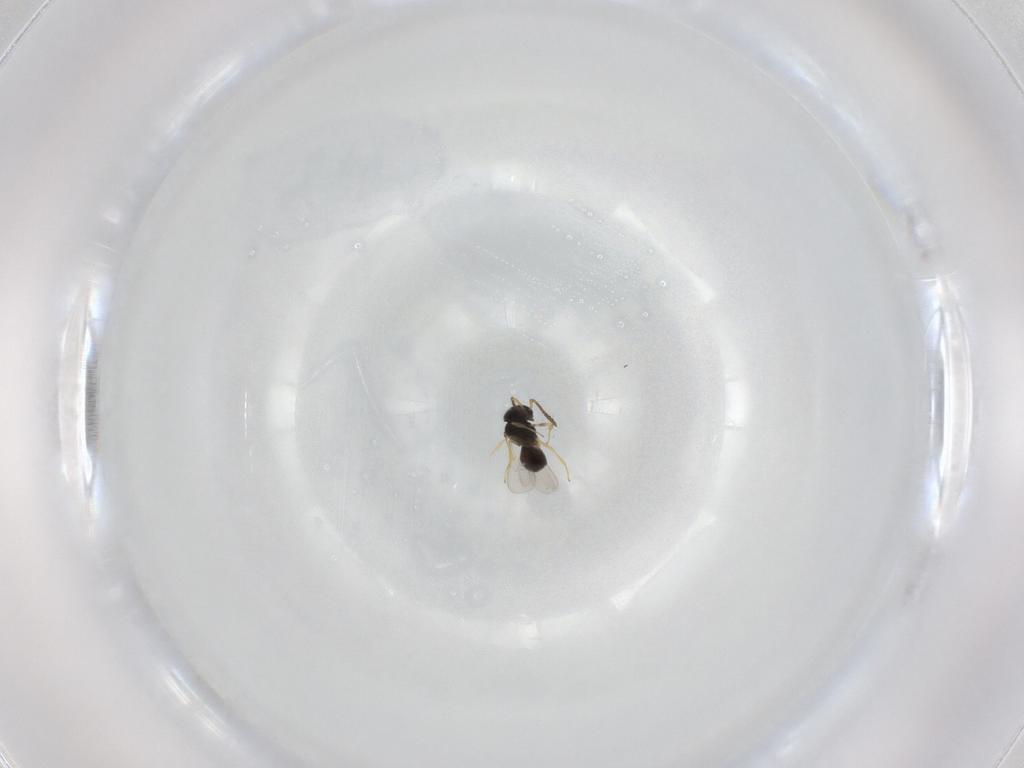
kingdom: Animalia
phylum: Arthropoda
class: Insecta
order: Hymenoptera
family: Scelionidae
